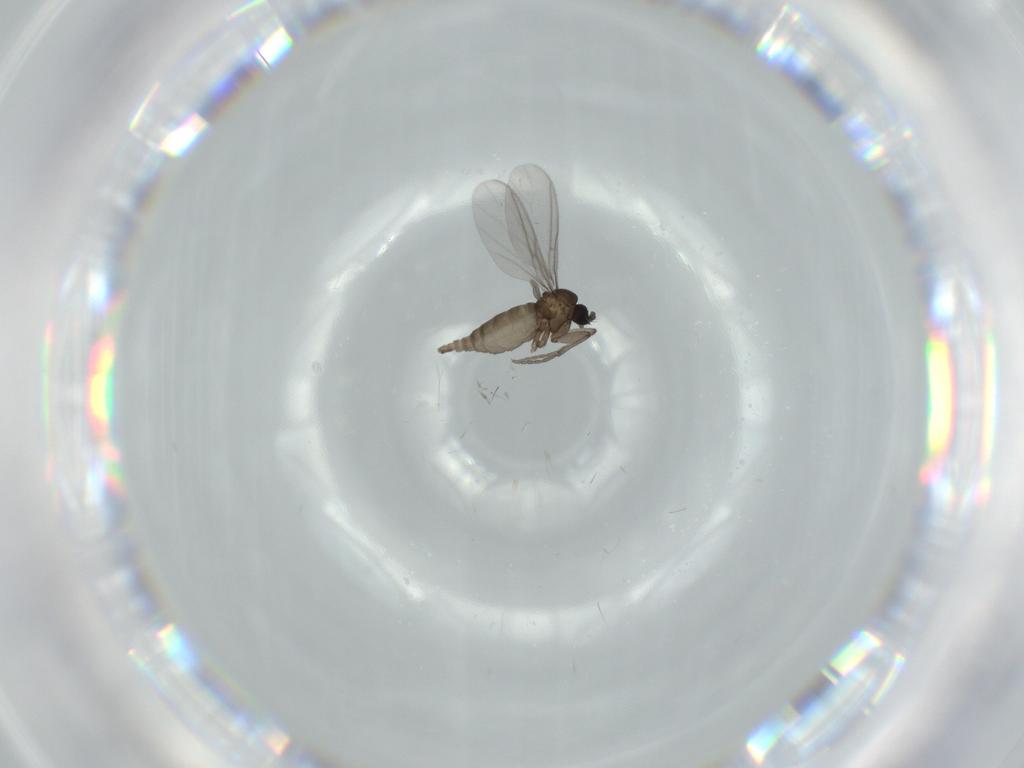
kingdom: Animalia
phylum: Arthropoda
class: Insecta
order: Diptera
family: Sciaridae
